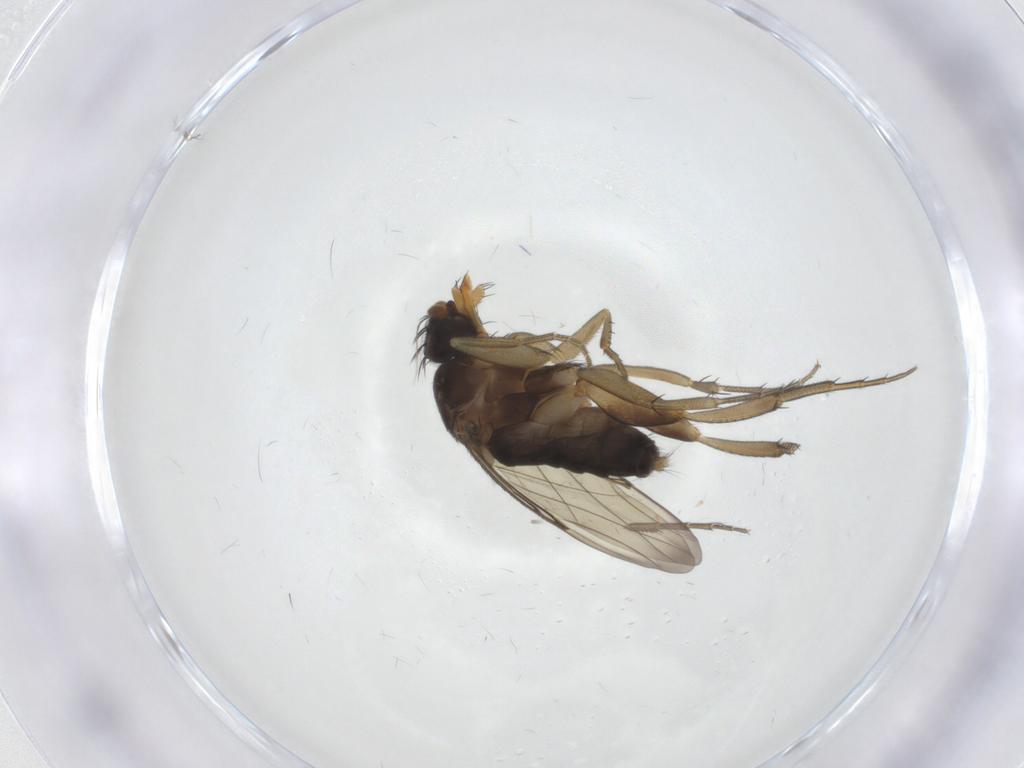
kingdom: Animalia
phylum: Arthropoda
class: Insecta
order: Diptera
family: Phoridae
